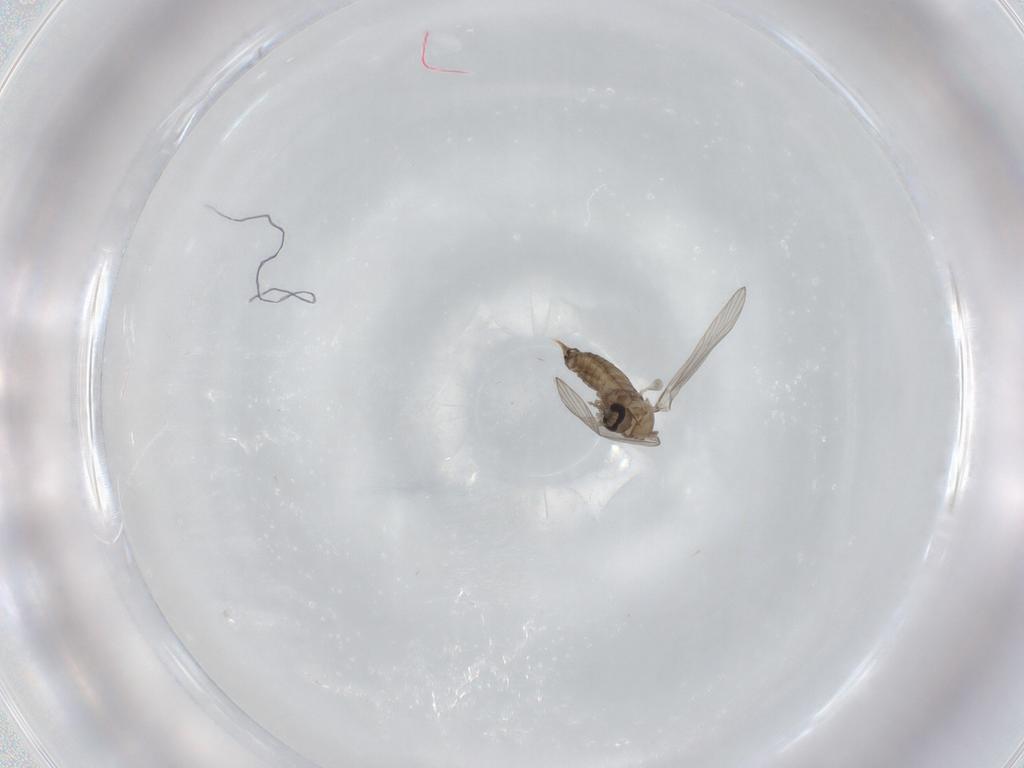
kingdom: Animalia
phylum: Arthropoda
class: Insecta
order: Diptera
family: Psychodidae
